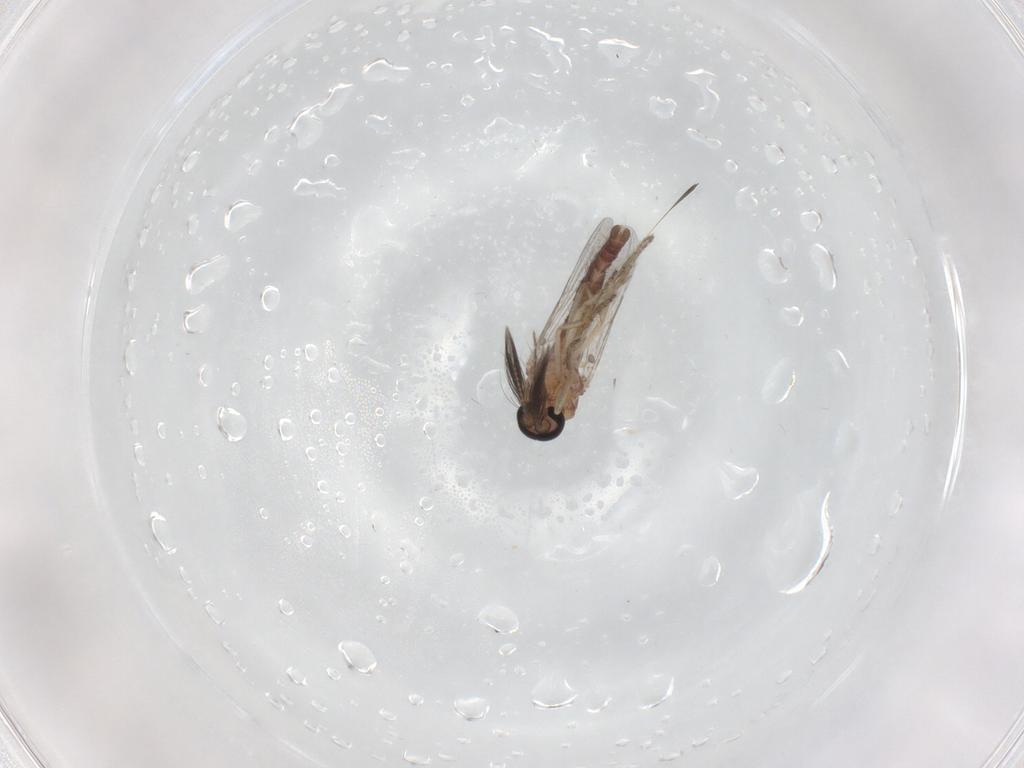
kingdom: Animalia
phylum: Arthropoda
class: Insecta
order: Diptera
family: Ceratopogonidae
